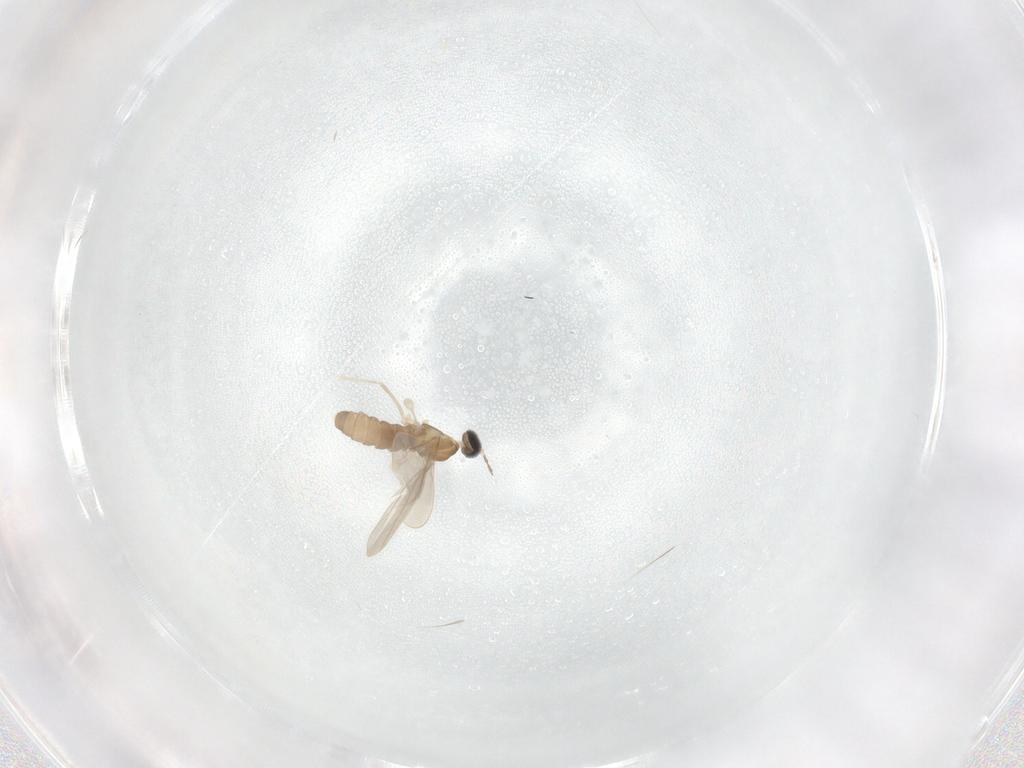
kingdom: Animalia
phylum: Arthropoda
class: Insecta
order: Diptera
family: Cecidomyiidae
